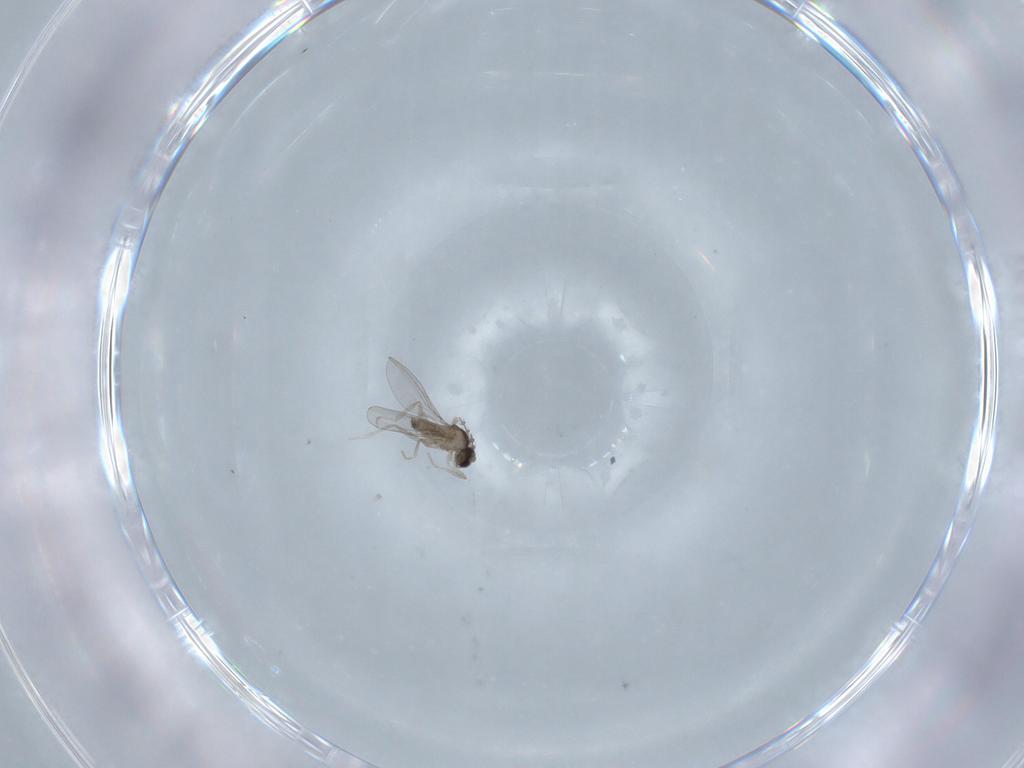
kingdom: Animalia
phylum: Arthropoda
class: Insecta
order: Diptera
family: Cecidomyiidae
